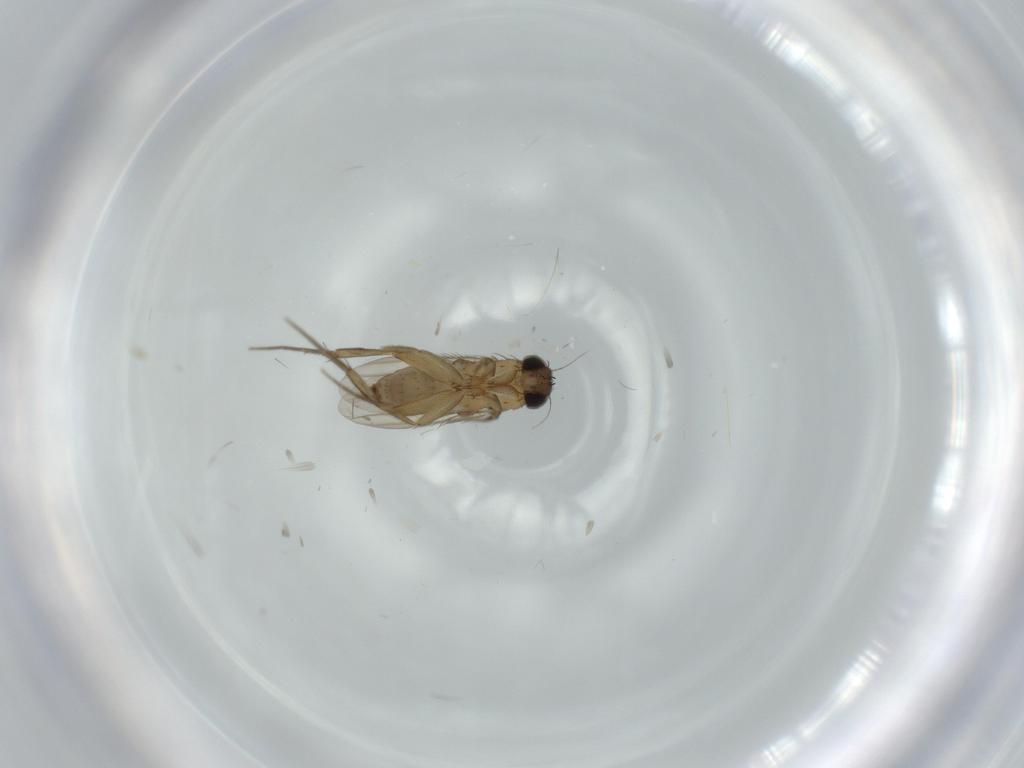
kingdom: Animalia
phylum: Arthropoda
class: Insecta
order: Diptera
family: Phoridae
